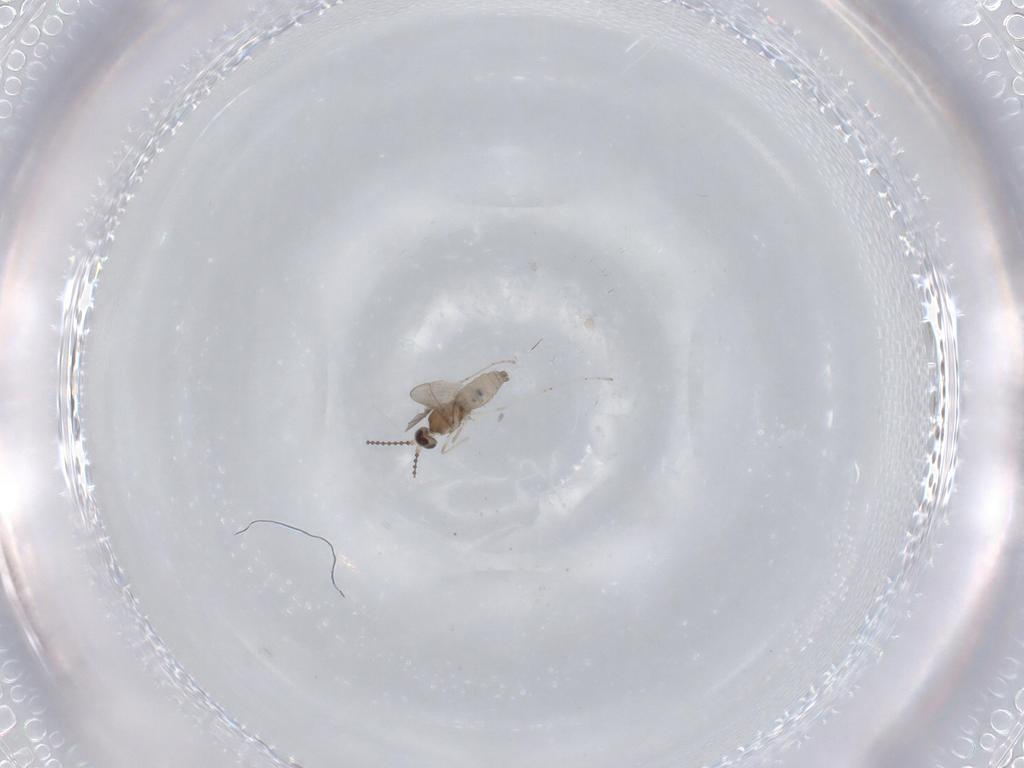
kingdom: Animalia
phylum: Arthropoda
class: Insecta
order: Diptera
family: Cecidomyiidae
